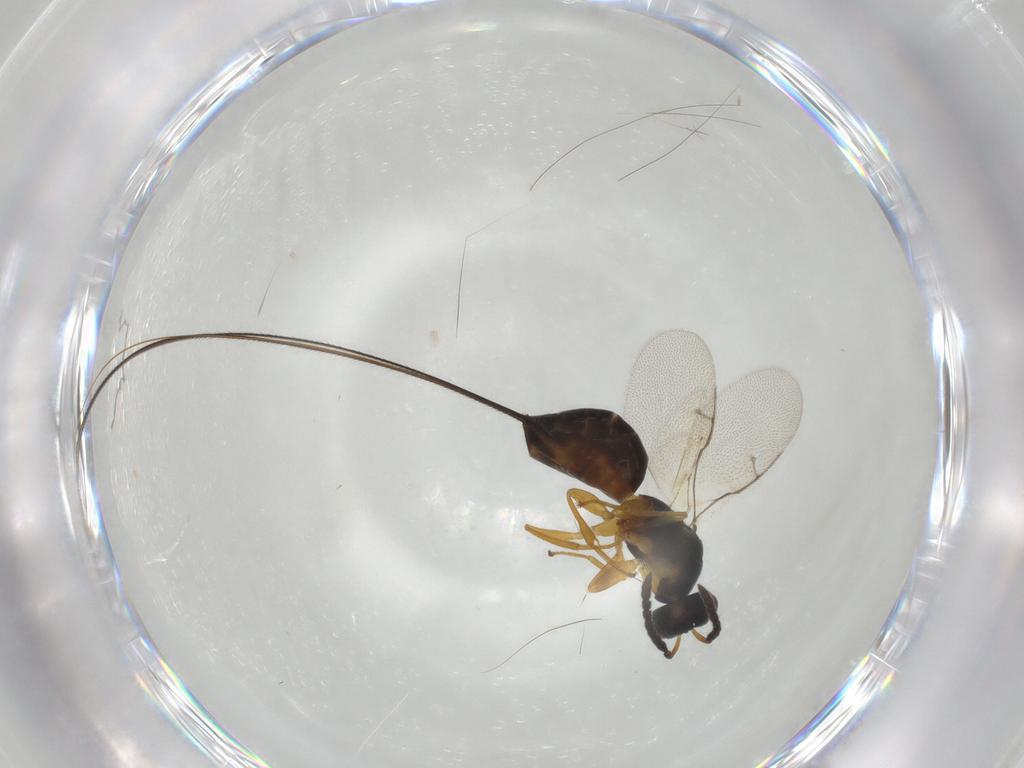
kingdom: Animalia
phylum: Arthropoda
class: Insecta
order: Hymenoptera
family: Pteromalidae
